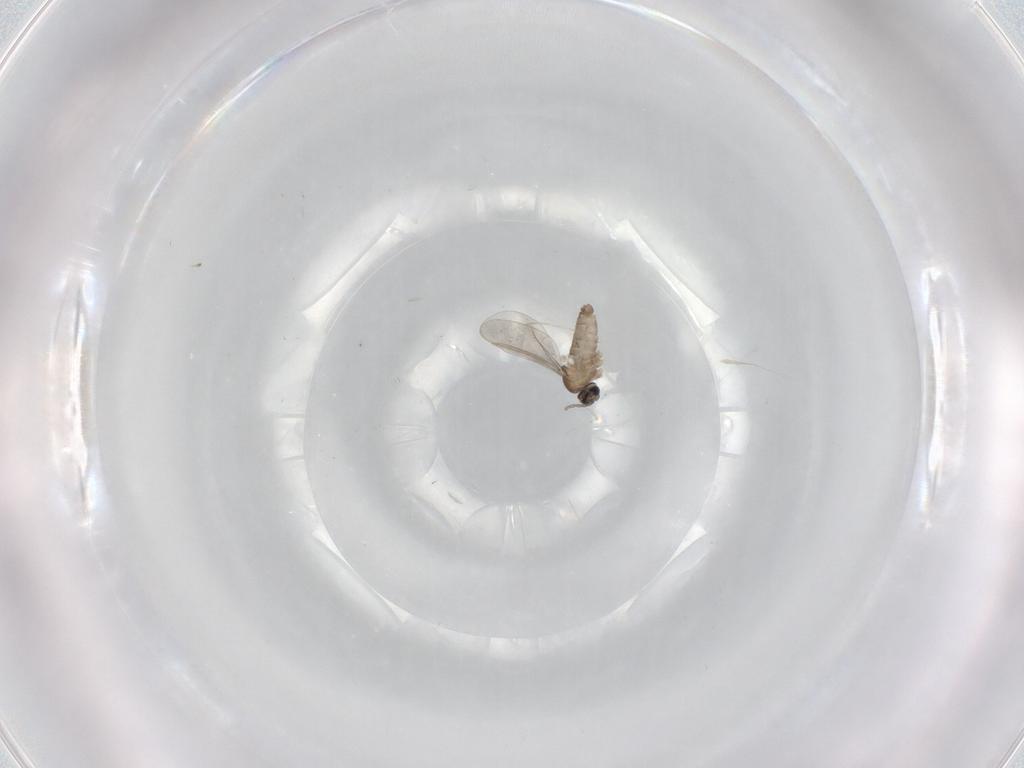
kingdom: Animalia
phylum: Arthropoda
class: Insecta
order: Diptera
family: Cecidomyiidae
